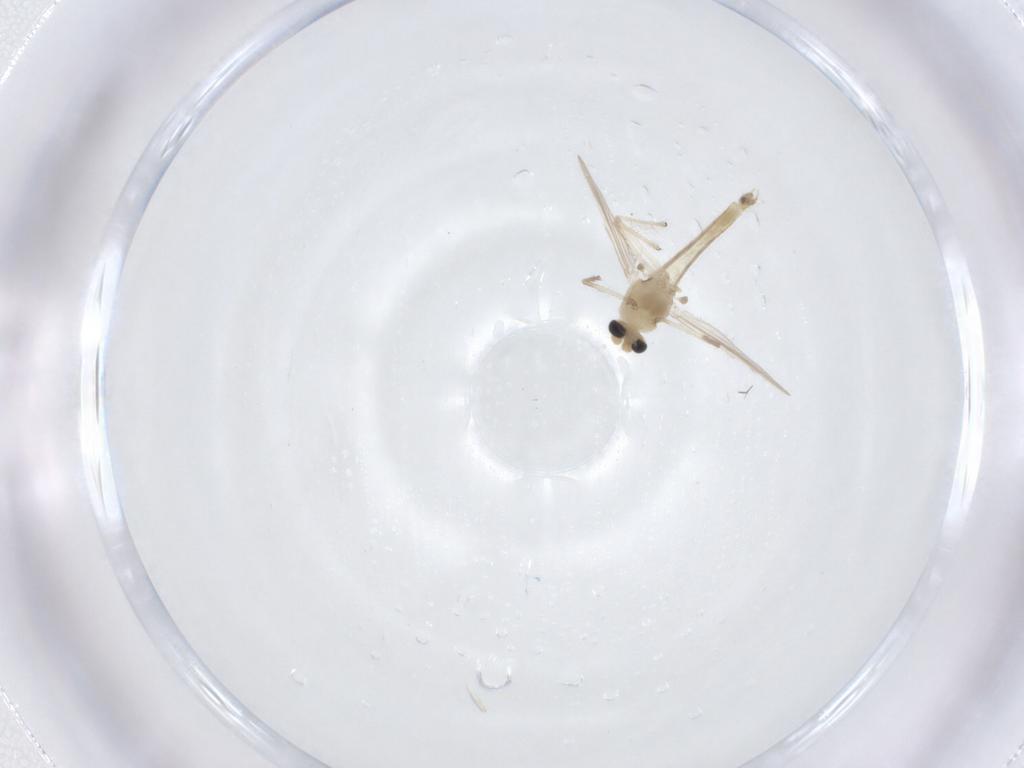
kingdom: Animalia
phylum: Arthropoda
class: Insecta
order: Diptera
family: Chironomidae
